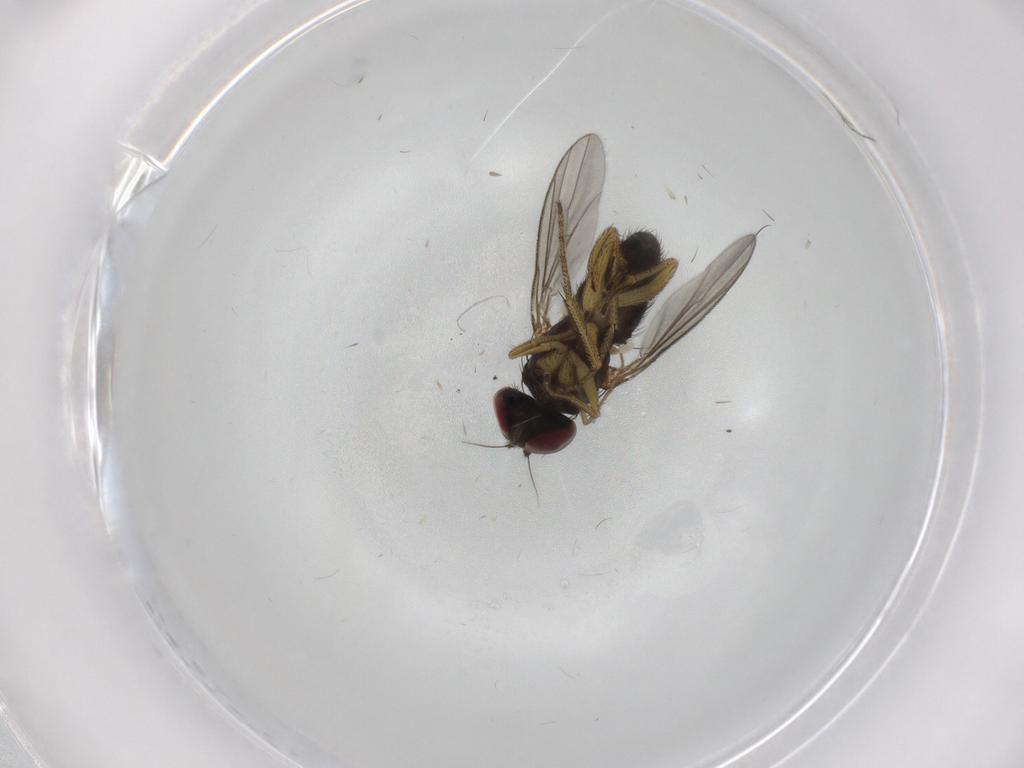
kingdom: Animalia
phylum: Arthropoda
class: Insecta
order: Diptera
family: Dolichopodidae
